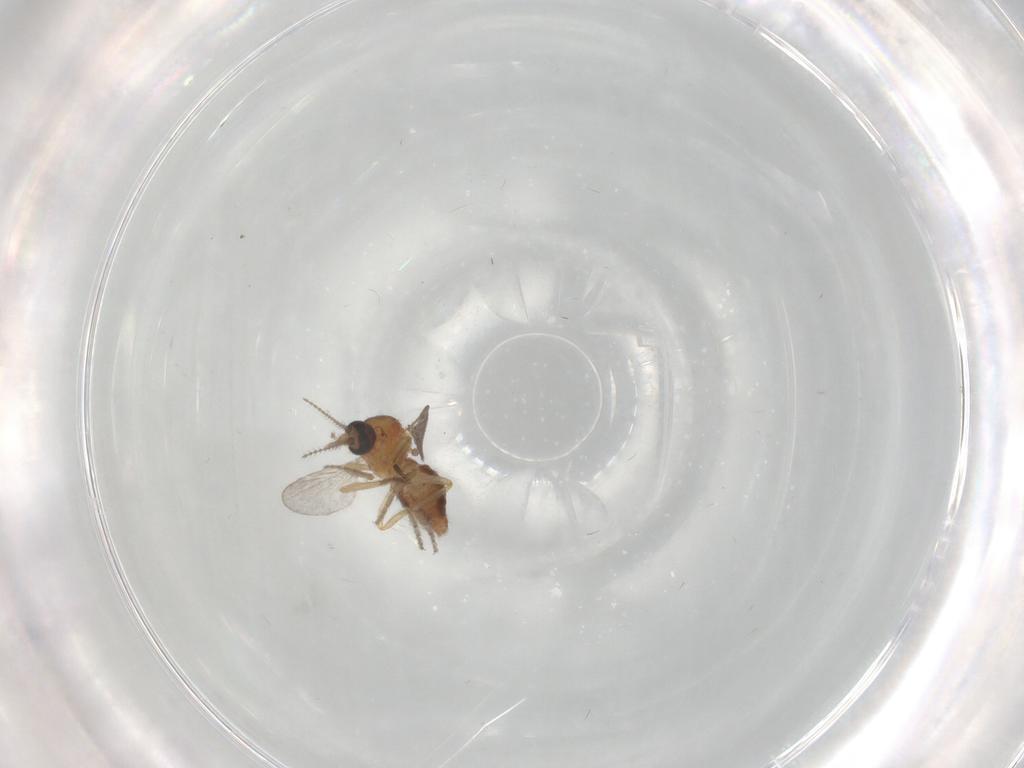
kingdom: Animalia
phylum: Arthropoda
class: Insecta
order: Diptera
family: Ceratopogonidae
